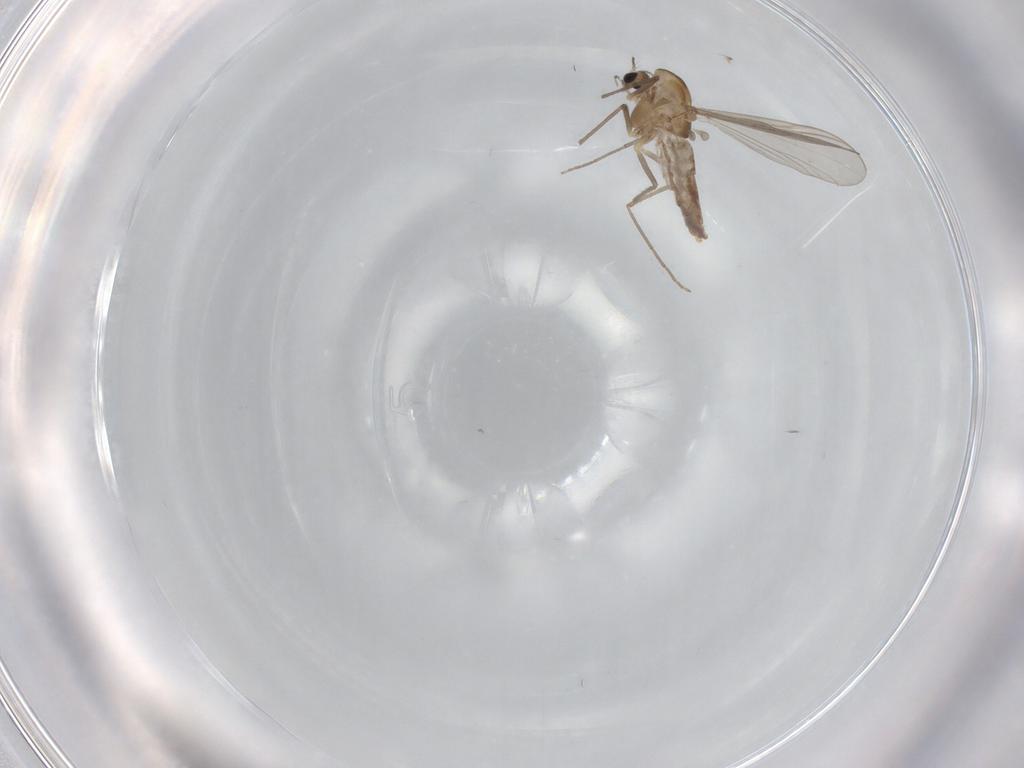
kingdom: Animalia
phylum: Arthropoda
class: Insecta
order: Diptera
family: Chironomidae
